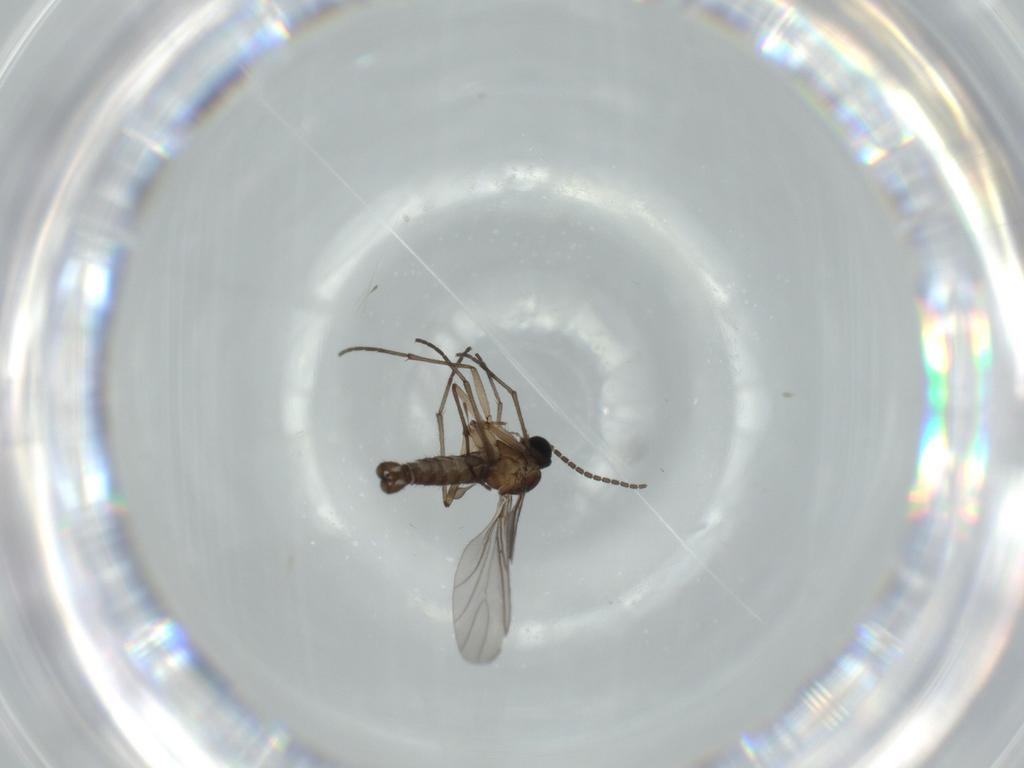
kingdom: Animalia
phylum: Arthropoda
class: Insecta
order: Diptera
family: Sciaridae
